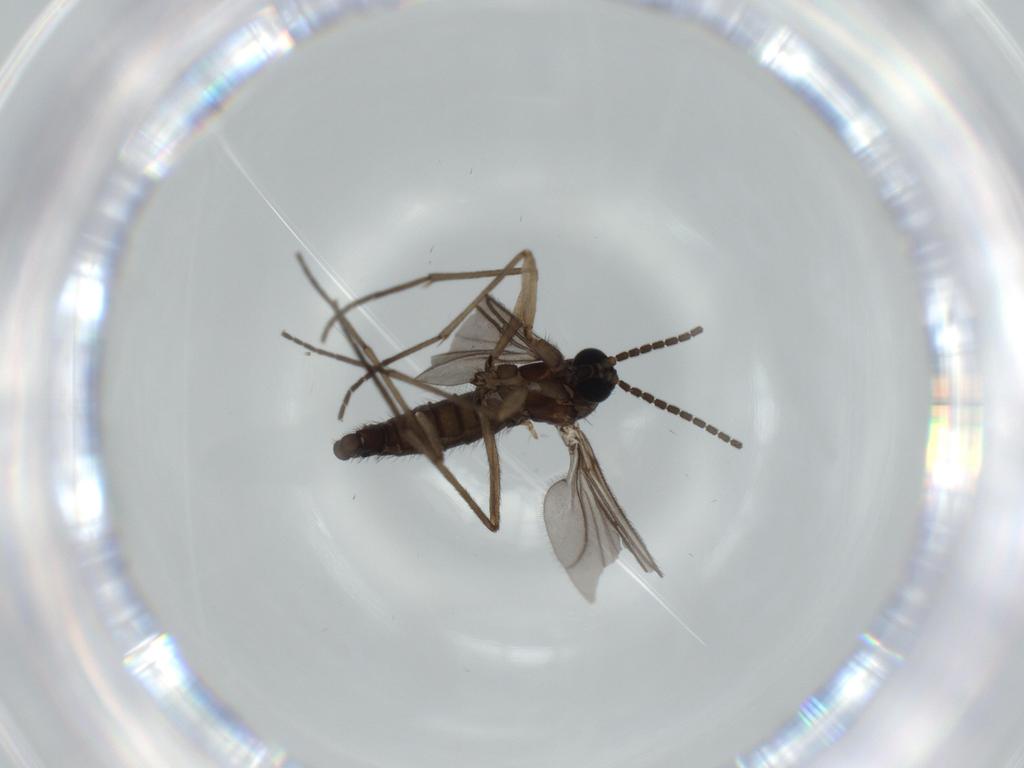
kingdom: Animalia
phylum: Arthropoda
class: Insecta
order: Diptera
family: Sciaridae
